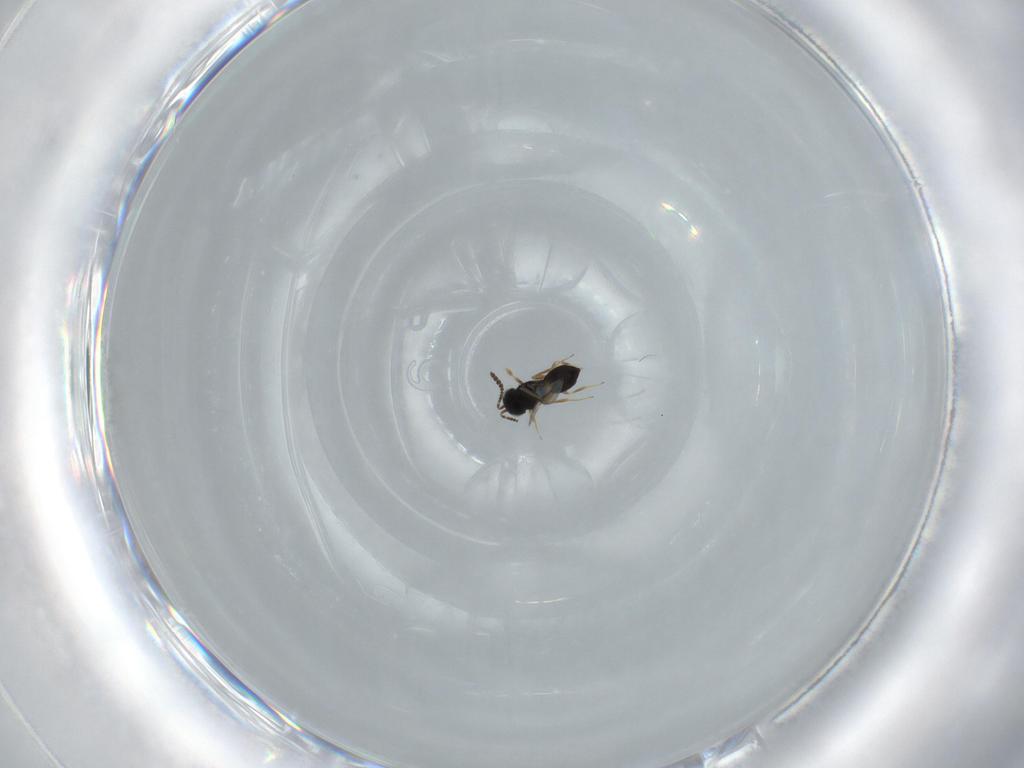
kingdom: Animalia
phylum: Arthropoda
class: Insecta
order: Hymenoptera
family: Scelionidae
